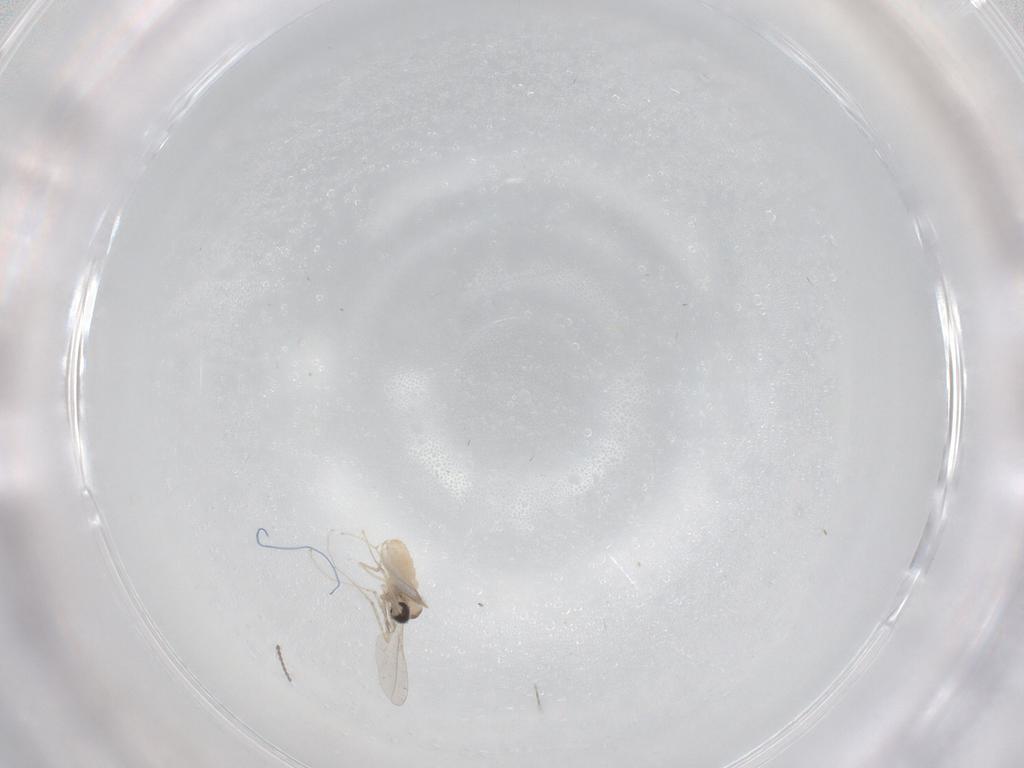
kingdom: Animalia
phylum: Arthropoda
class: Insecta
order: Diptera
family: Cecidomyiidae
